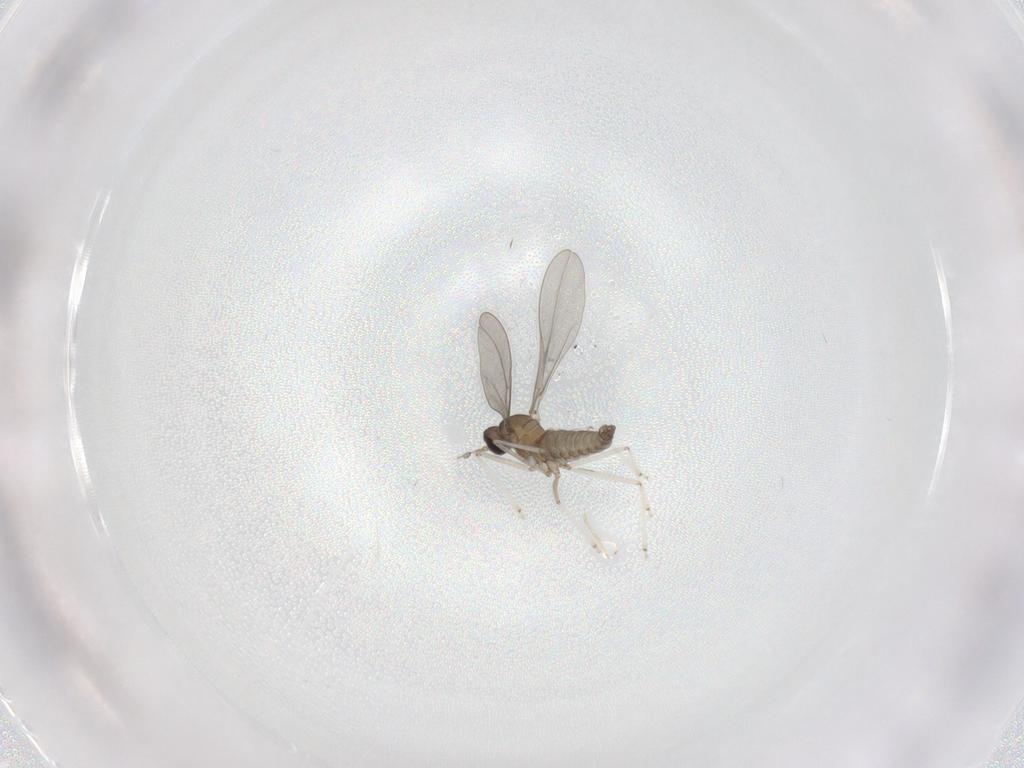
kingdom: Animalia
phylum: Arthropoda
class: Insecta
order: Diptera
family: Cecidomyiidae
